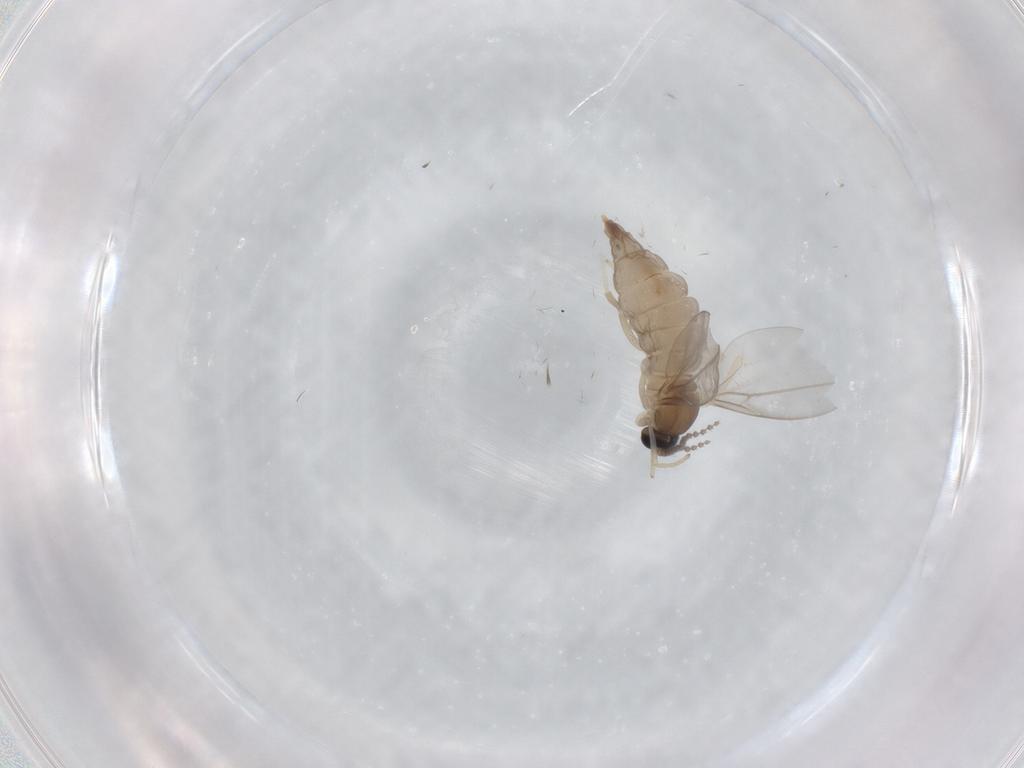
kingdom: Animalia
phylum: Arthropoda
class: Insecta
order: Diptera
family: Cecidomyiidae
